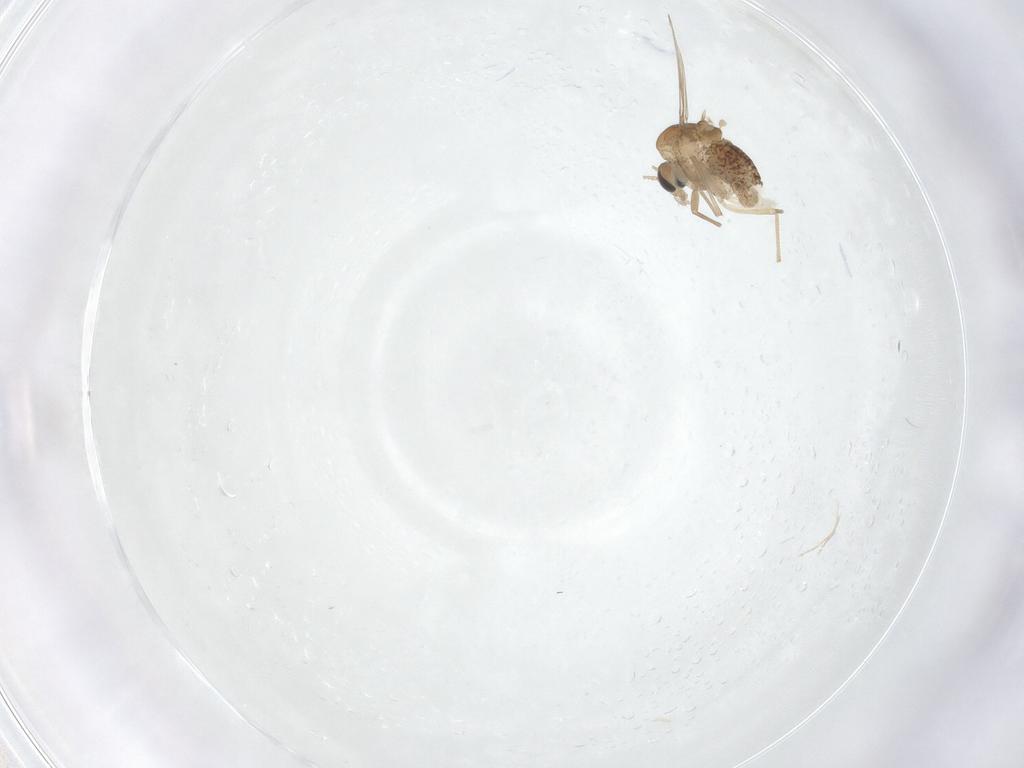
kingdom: Animalia
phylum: Arthropoda
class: Insecta
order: Diptera
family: Chironomidae
